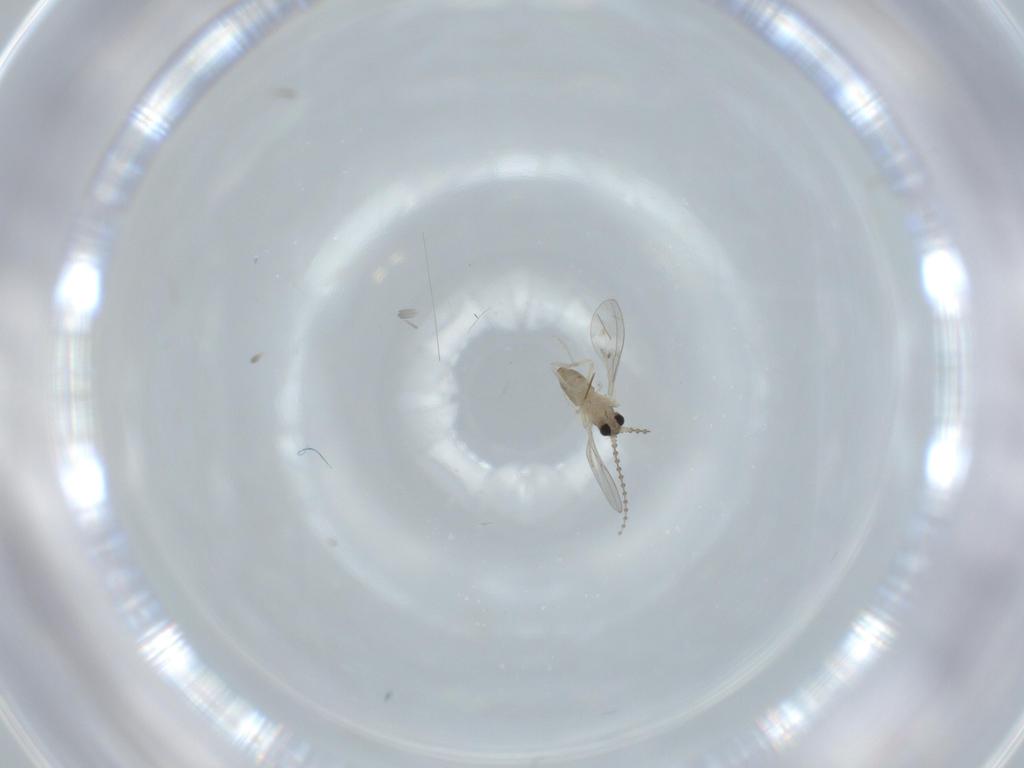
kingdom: Animalia
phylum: Arthropoda
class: Insecta
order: Diptera
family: Cecidomyiidae
